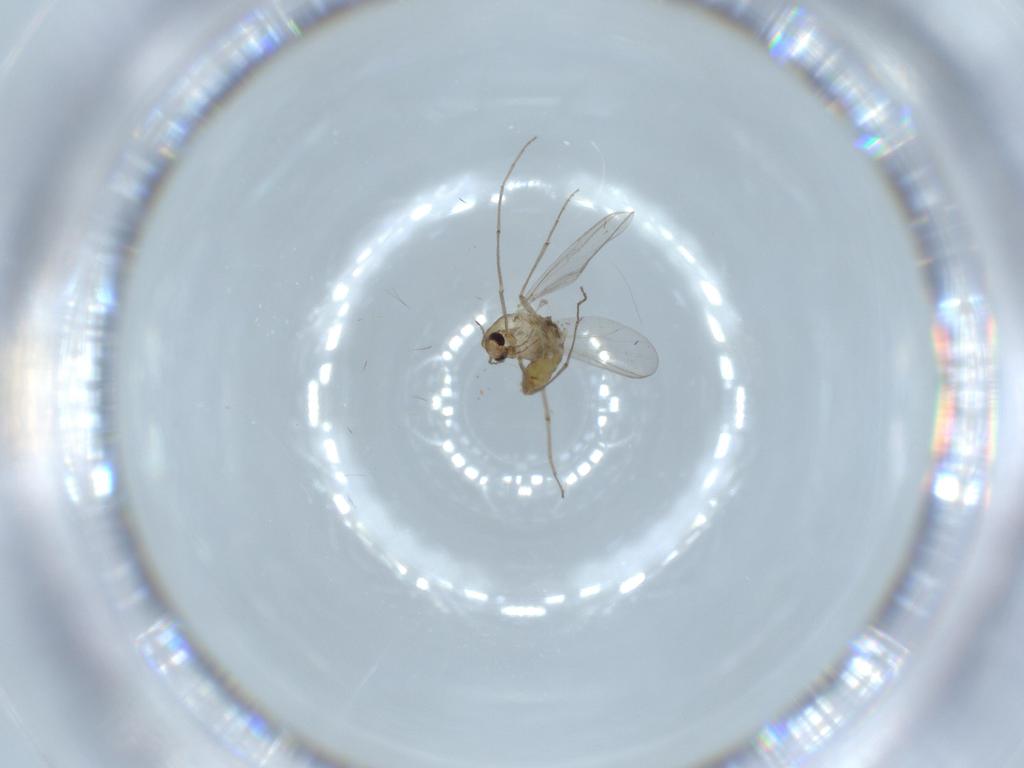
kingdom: Animalia
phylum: Arthropoda
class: Insecta
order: Diptera
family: Chironomidae
